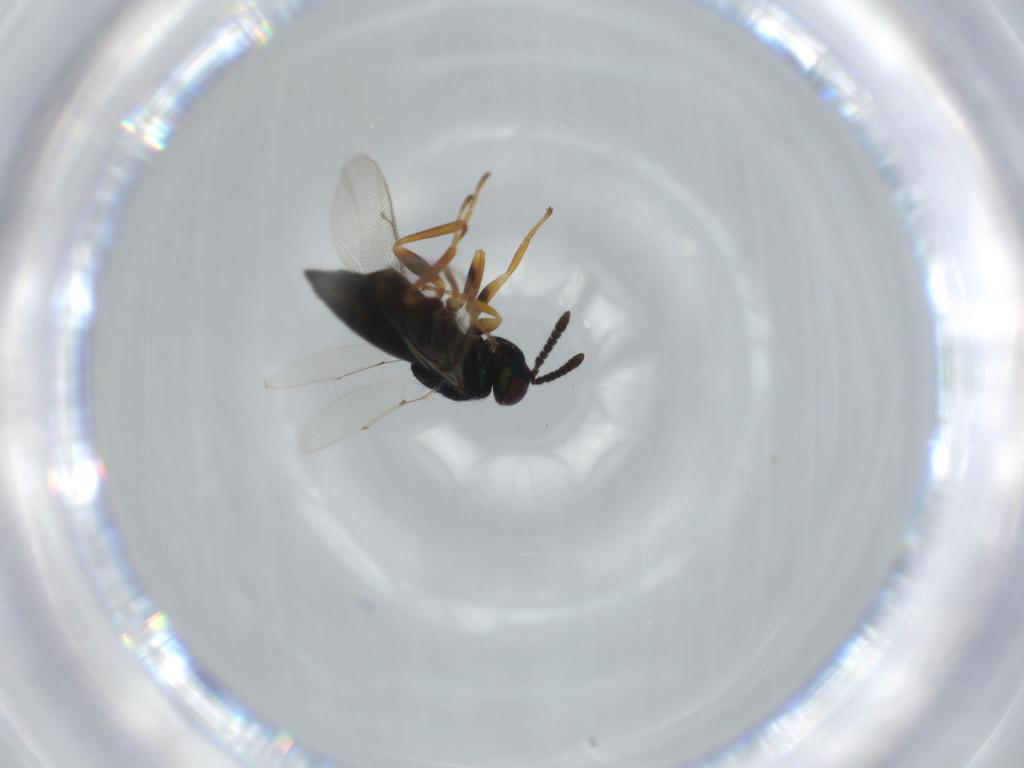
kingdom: Animalia
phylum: Arthropoda
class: Insecta
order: Hymenoptera
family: Pteromalidae
